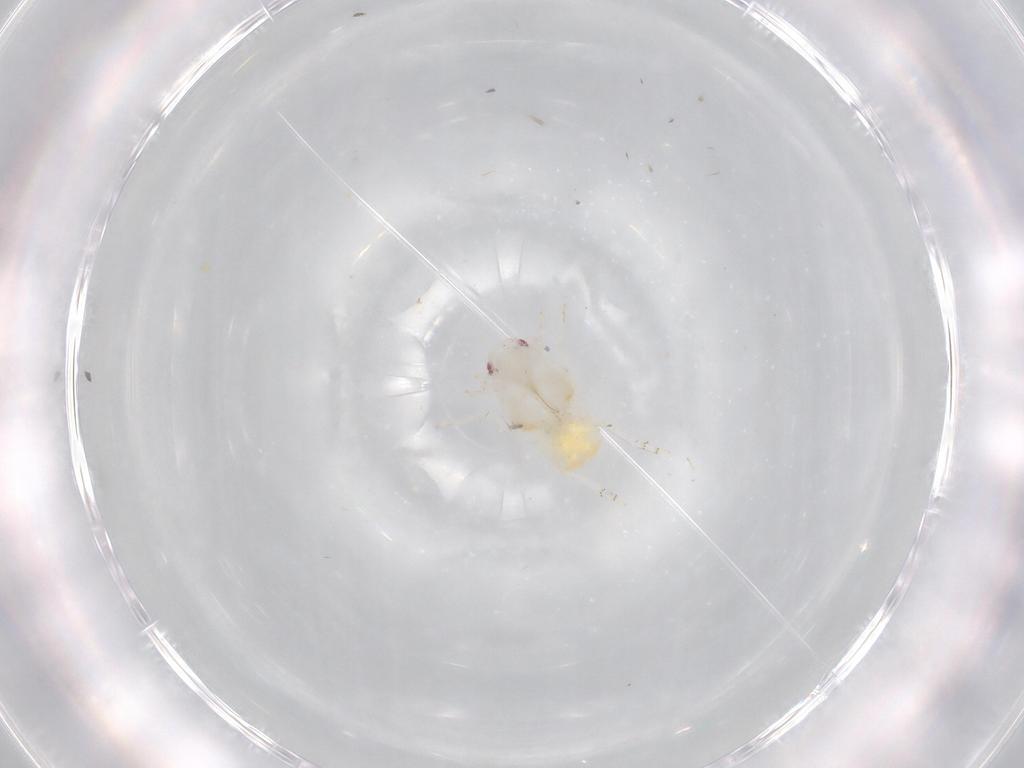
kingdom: Animalia
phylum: Arthropoda
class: Insecta
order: Hemiptera
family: Flatidae
